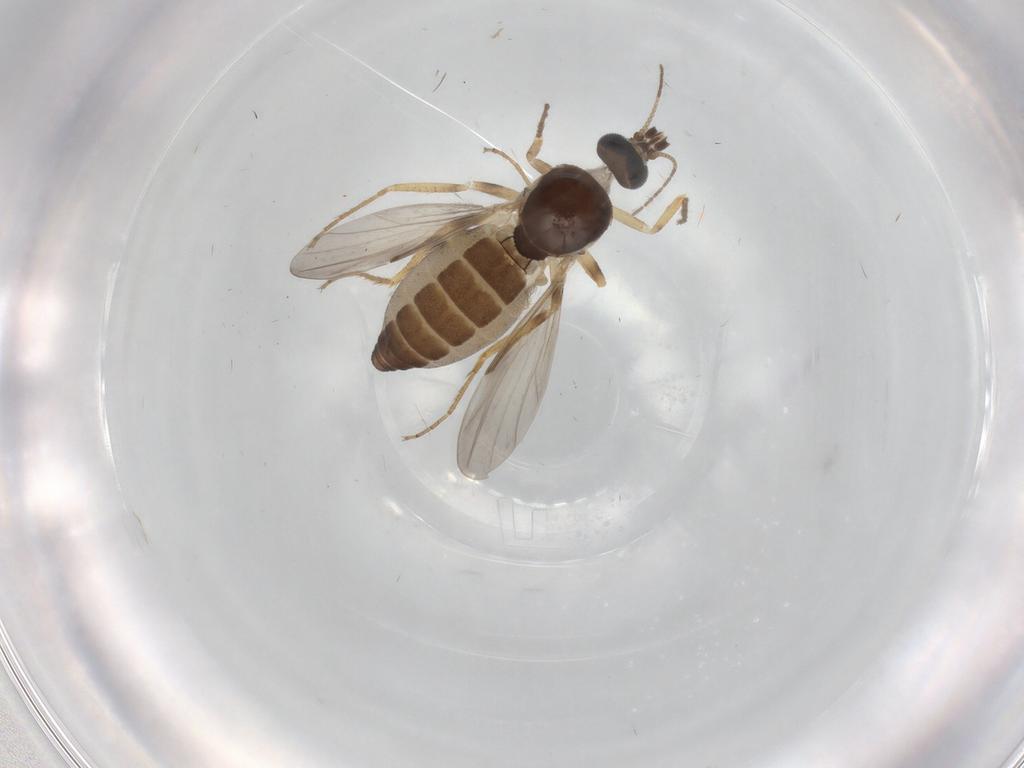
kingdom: Animalia
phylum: Arthropoda
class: Insecta
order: Diptera
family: Ceratopogonidae
